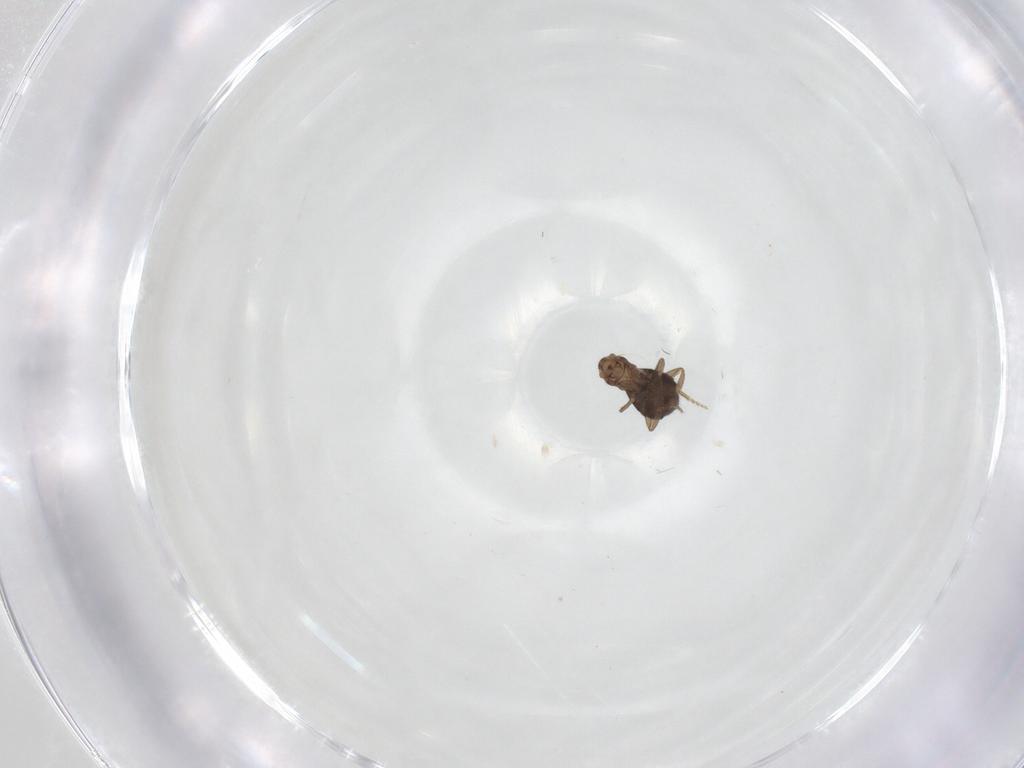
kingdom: Animalia
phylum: Arthropoda
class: Insecta
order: Diptera
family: Phoridae
